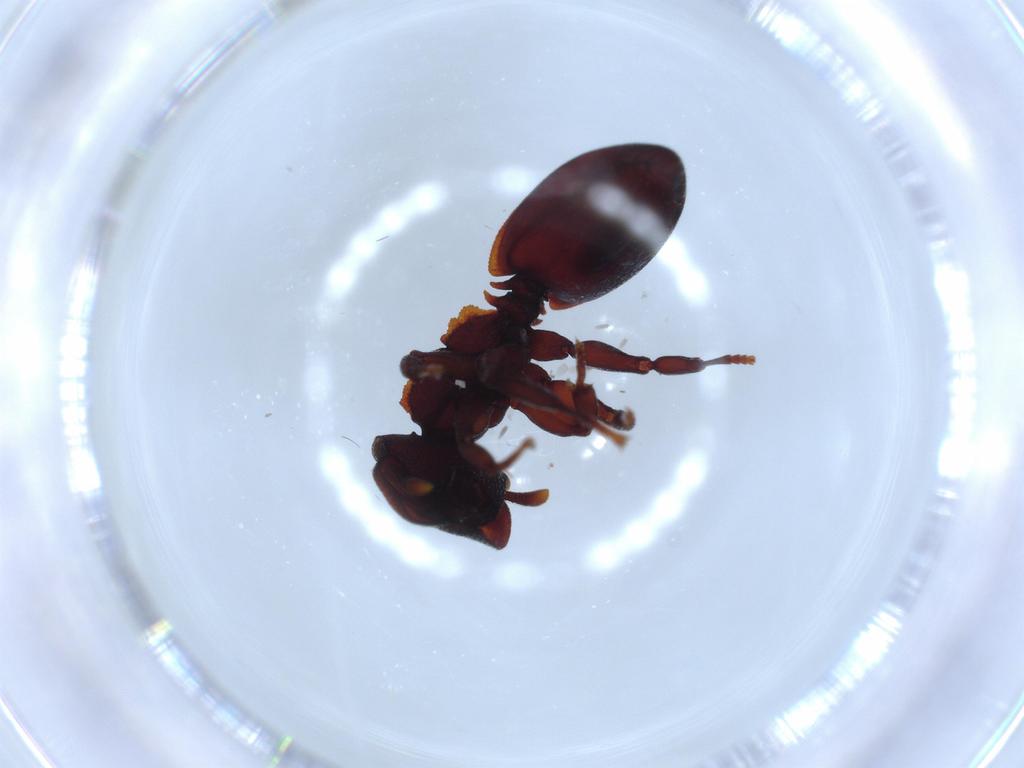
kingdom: Animalia
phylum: Arthropoda
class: Insecta
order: Hymenoptera
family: Formicidae
